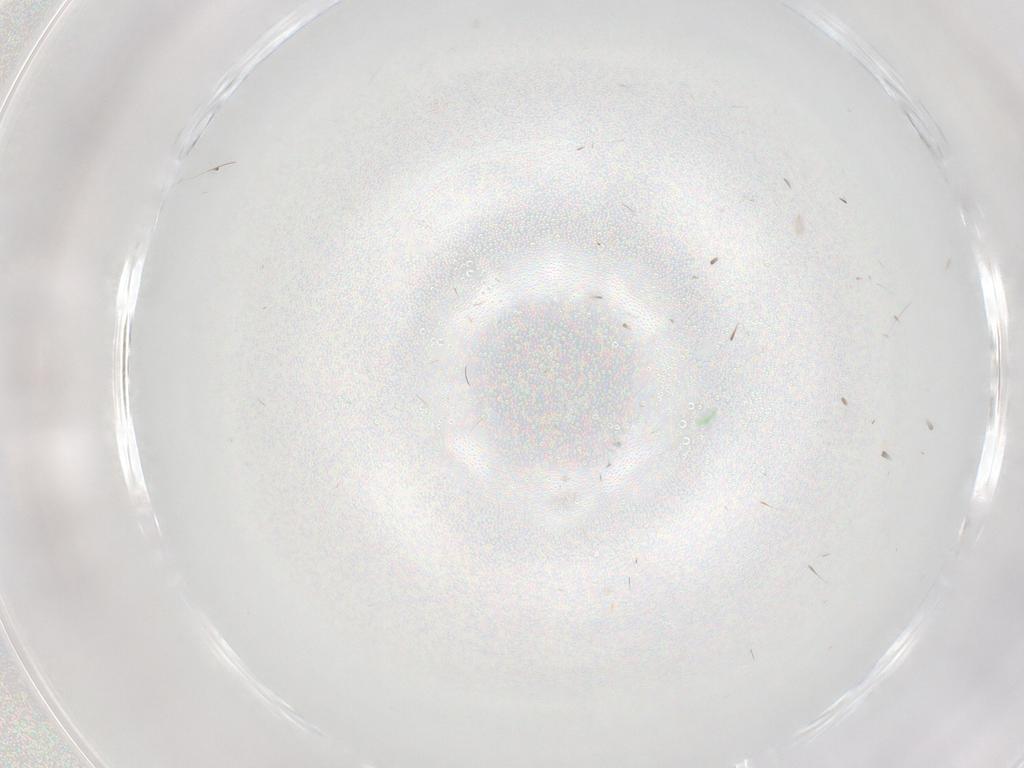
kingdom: Animalia
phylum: Arthropoda
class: Insecta
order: Diptera
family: Phoridae
